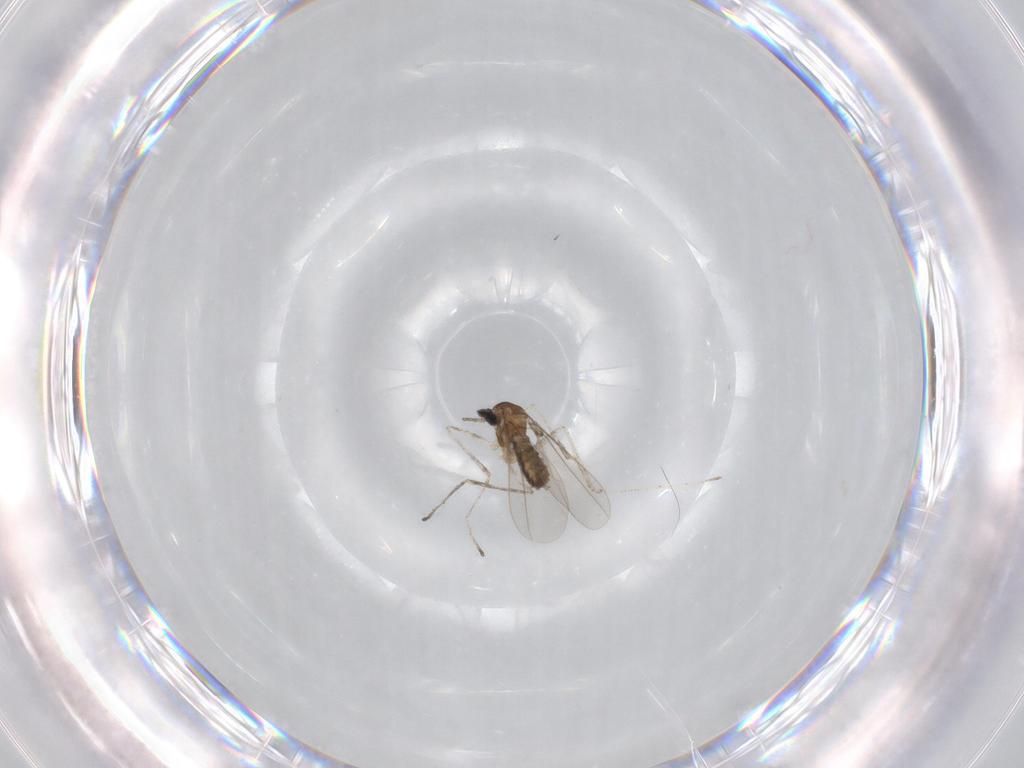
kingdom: Animalia
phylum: Arthropoda
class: Insecta
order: Diptera
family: Cecidomyiidae
